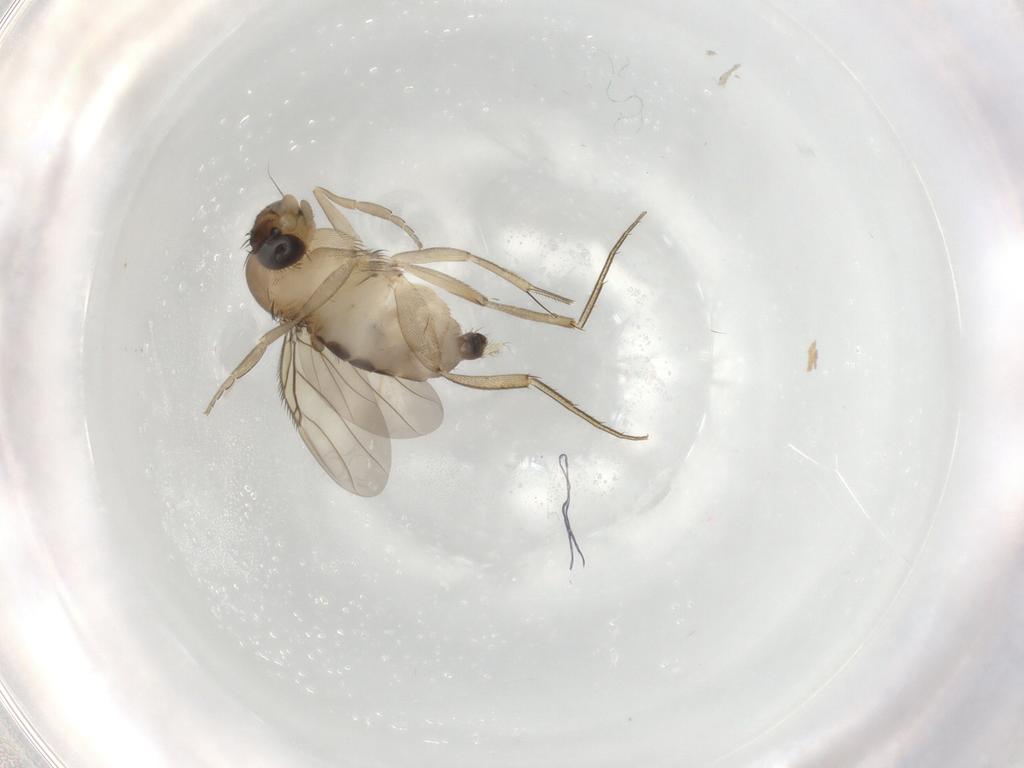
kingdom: Animalia
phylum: Arthropoda
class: Insecta
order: Diptera
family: Phoridae
